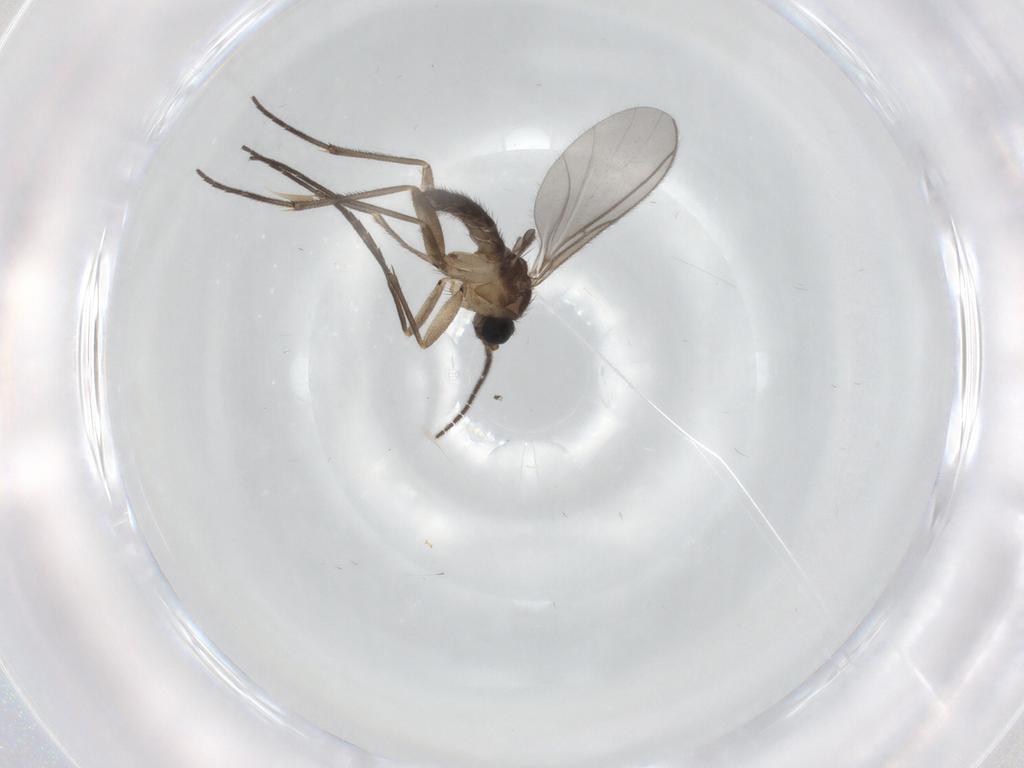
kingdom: Animalia
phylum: Arthropoda
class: Insecta
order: Diptera
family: Sciaridae
